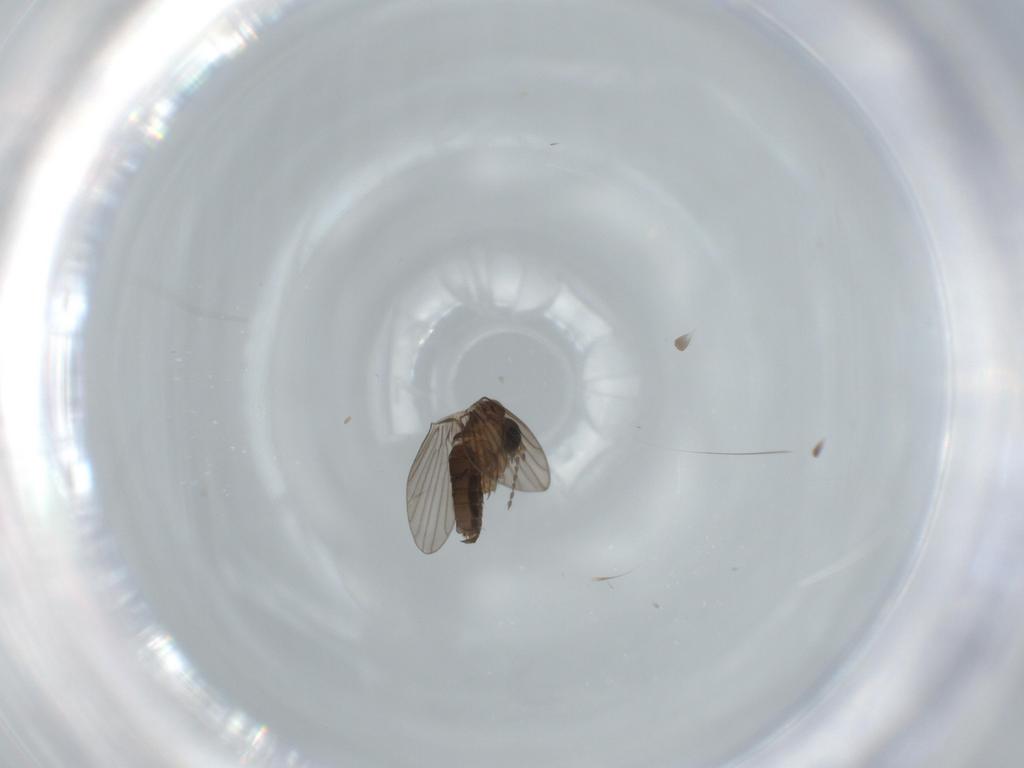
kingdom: Animalia
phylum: Arthropoda
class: Insecta
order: Diptera
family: Psychodidae
